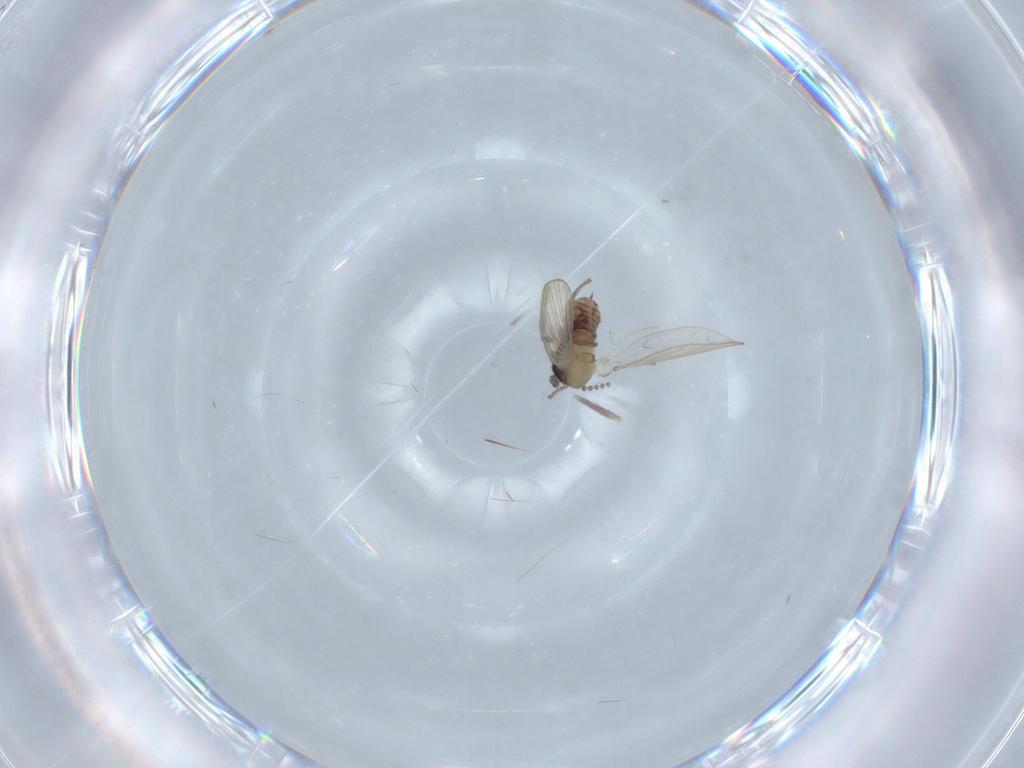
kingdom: Animalia
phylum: Arthropoda
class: Insecta
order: Diptera
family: Psychodidae
